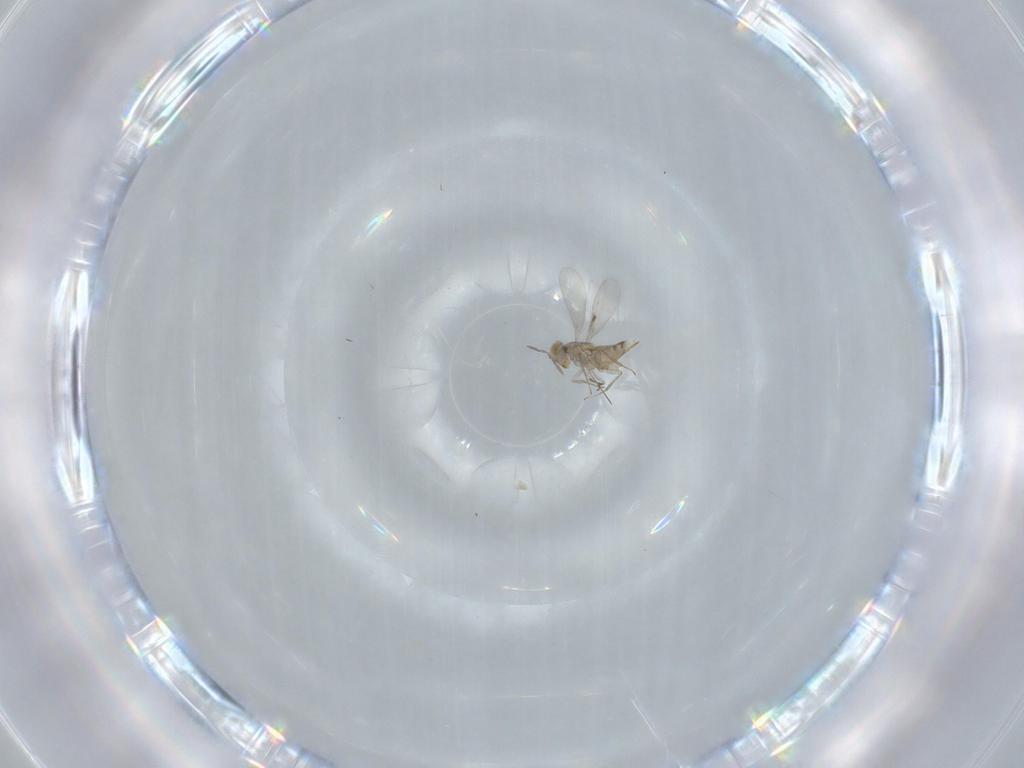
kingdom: Animalia
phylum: Arthropoda
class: Insecta
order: Hymenoptera
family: Aphelinidae
